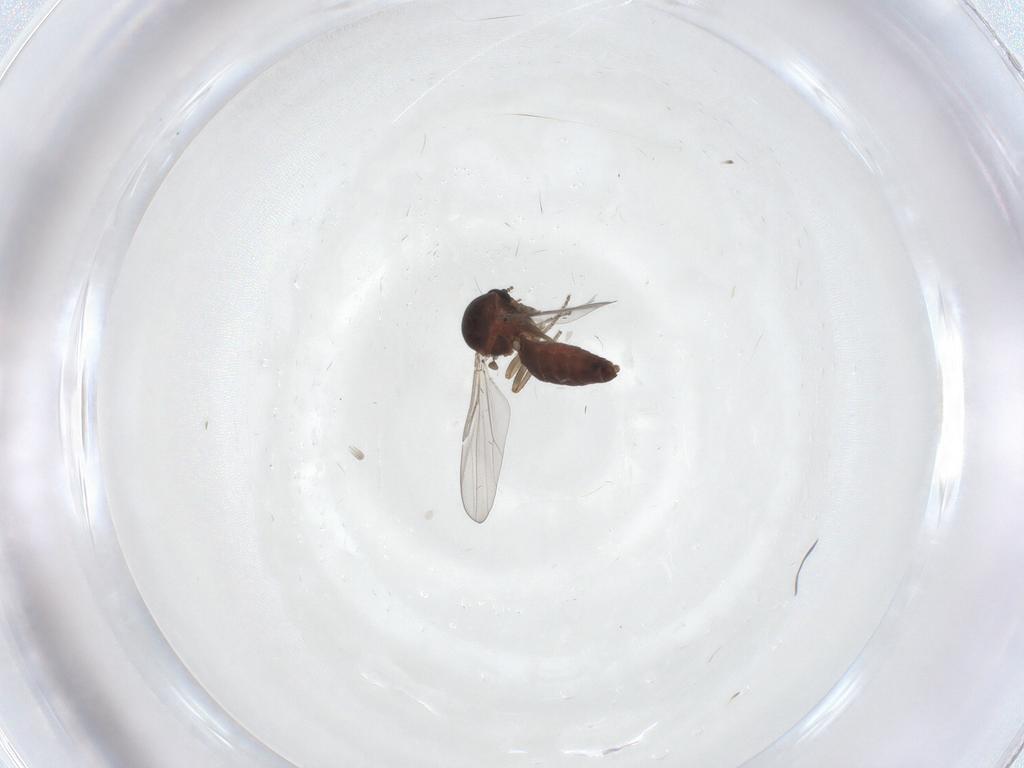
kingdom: Animalia
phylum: Arthropoda
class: Insecta
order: Diptera
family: Ceratopogonidae
